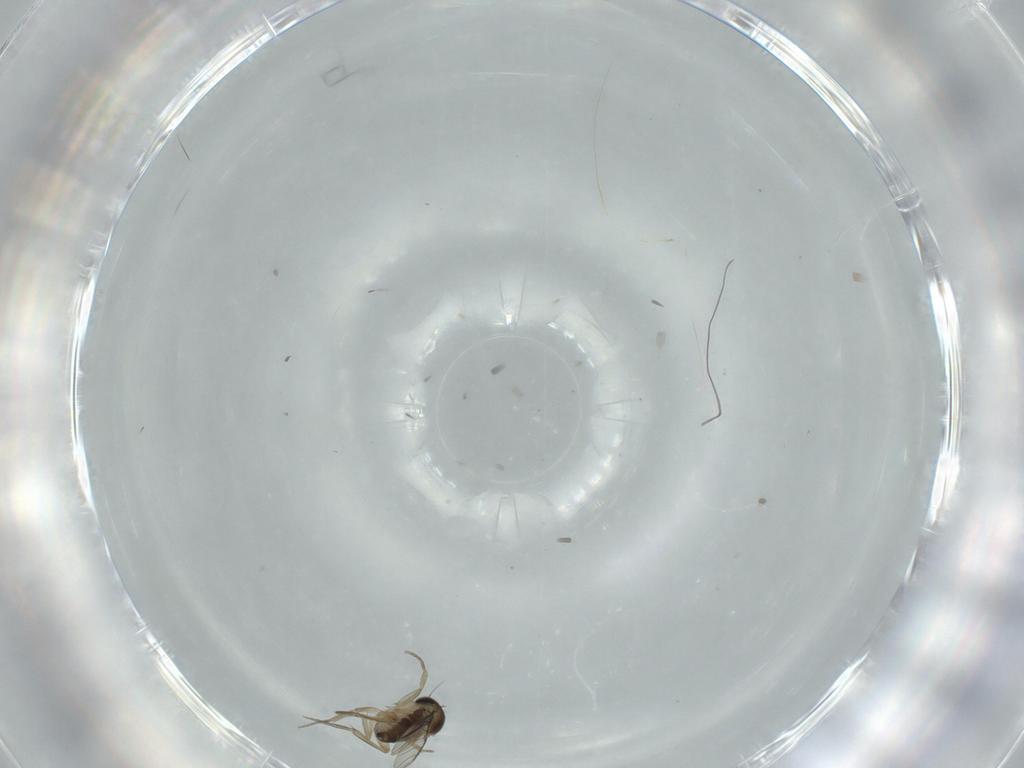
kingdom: Animalia
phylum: Arthropoda
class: Insecta
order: Diptera
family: Phoridae
